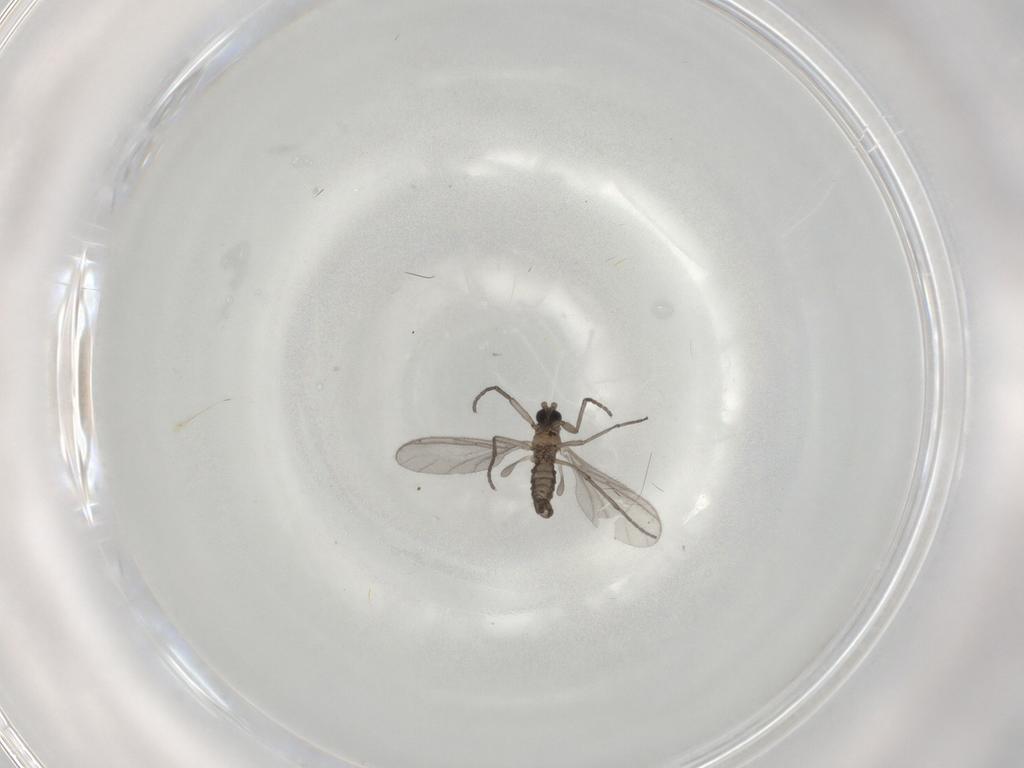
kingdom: Animalia
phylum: Arthropoda
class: Insecta
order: Diptera
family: Sciaridae
